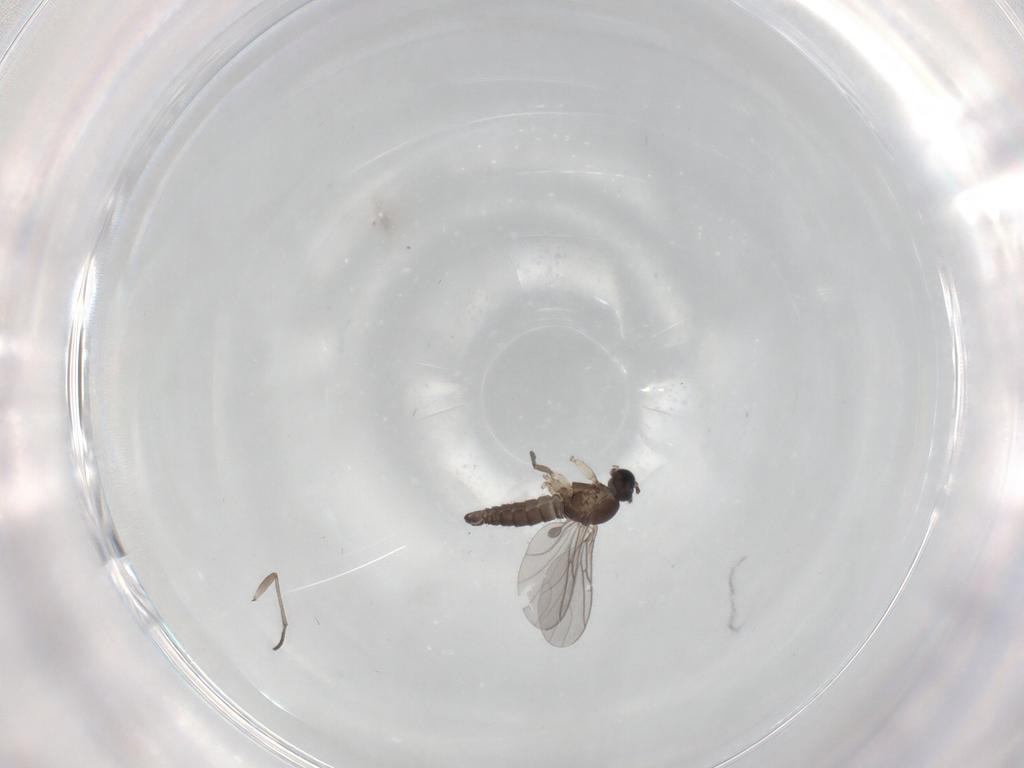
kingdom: Animalia
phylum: Arthropoda
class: Insecta
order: Diptera
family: Sciaridae
